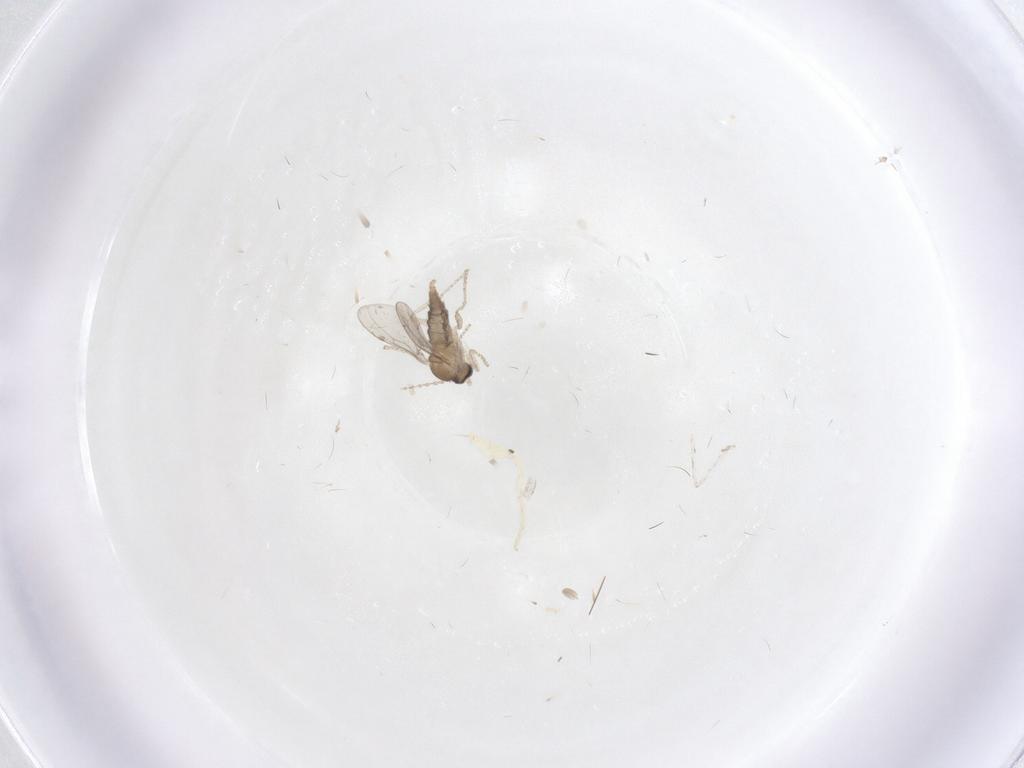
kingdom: Animalia
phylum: Arthropoda
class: Insecta
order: Diptera
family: Cecidomyiidae
